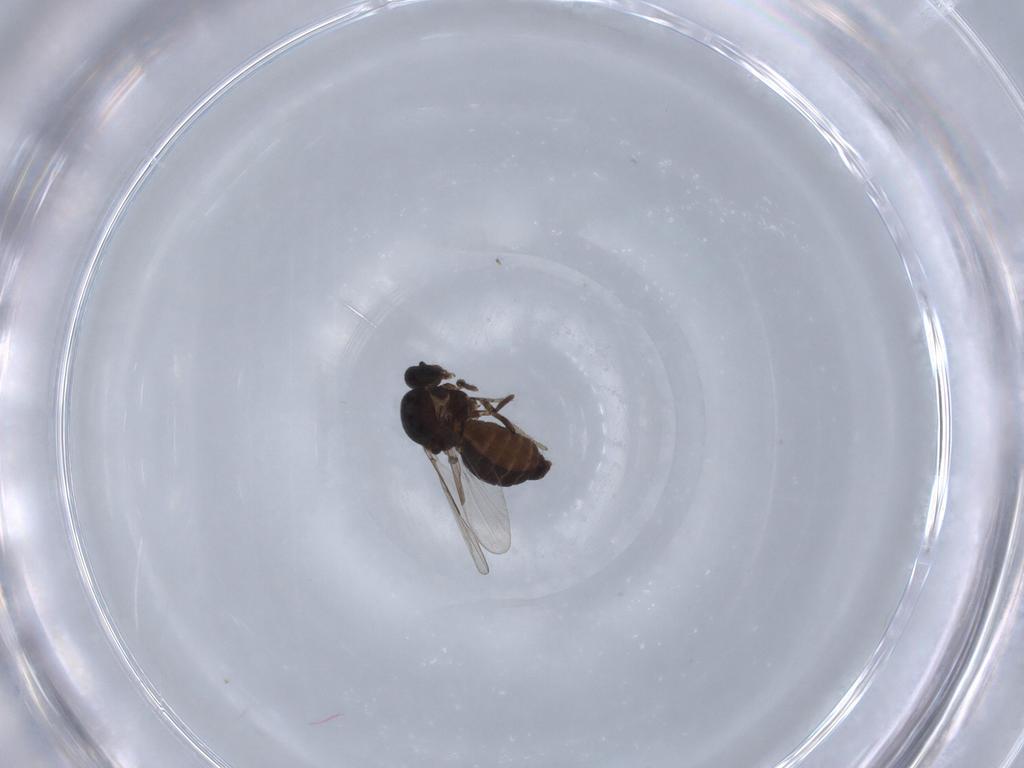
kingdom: Animalia
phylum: Arthropoda
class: Insecta
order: Diptera
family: Ceratopogonidae
